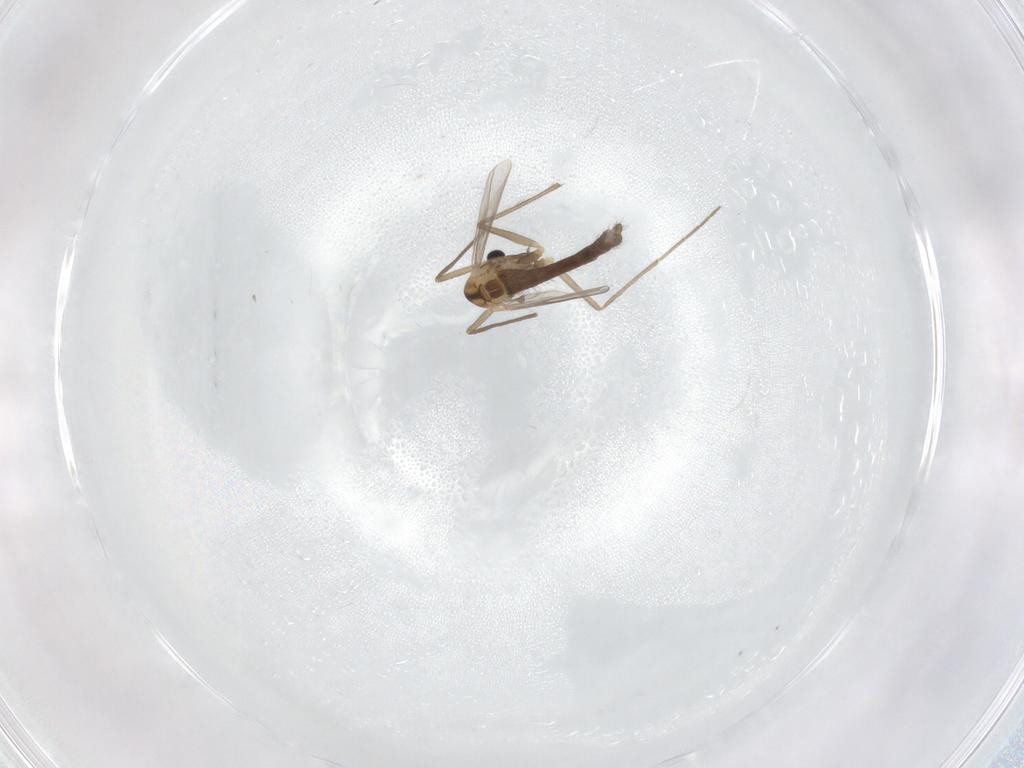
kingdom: Animalia
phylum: Arthropoda
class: Insecta
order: Diptera
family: Chironomidae
